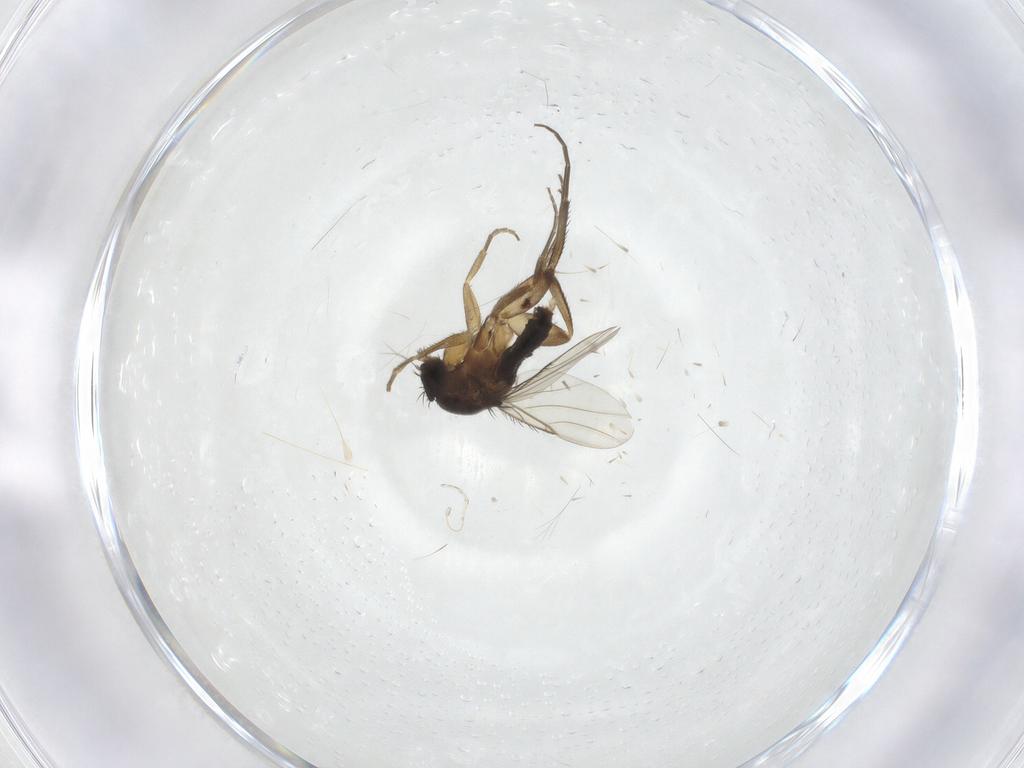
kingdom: Animalia
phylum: Arthropoda
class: Insecta
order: Diptera
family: Phoridae
